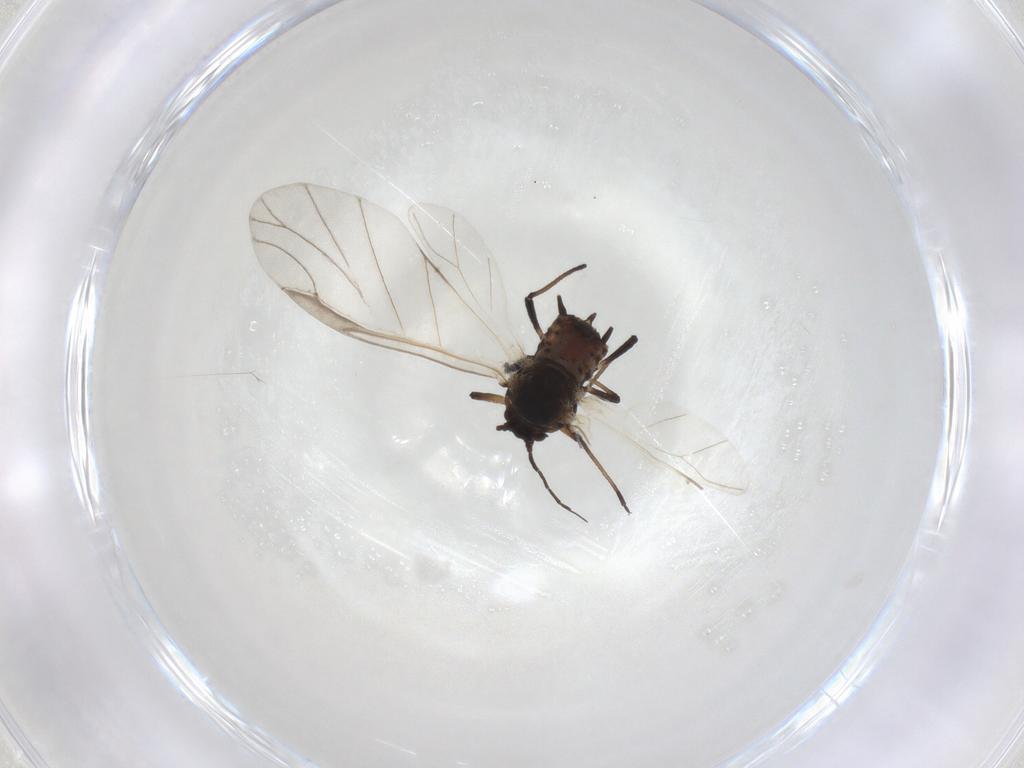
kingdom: Animalia
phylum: Arthropoda
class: Insecta
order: Hemiptera
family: Aphididae
